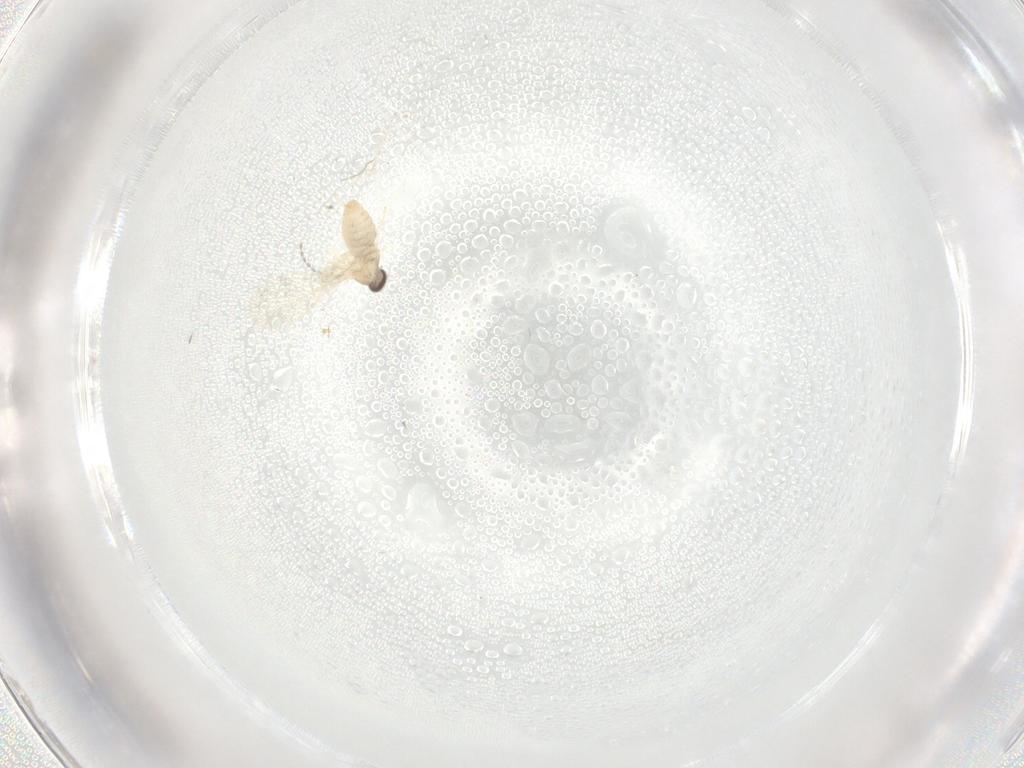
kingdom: Animalia
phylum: Arthropoda
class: Insecta
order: Diptera
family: Cecidomyiidae
